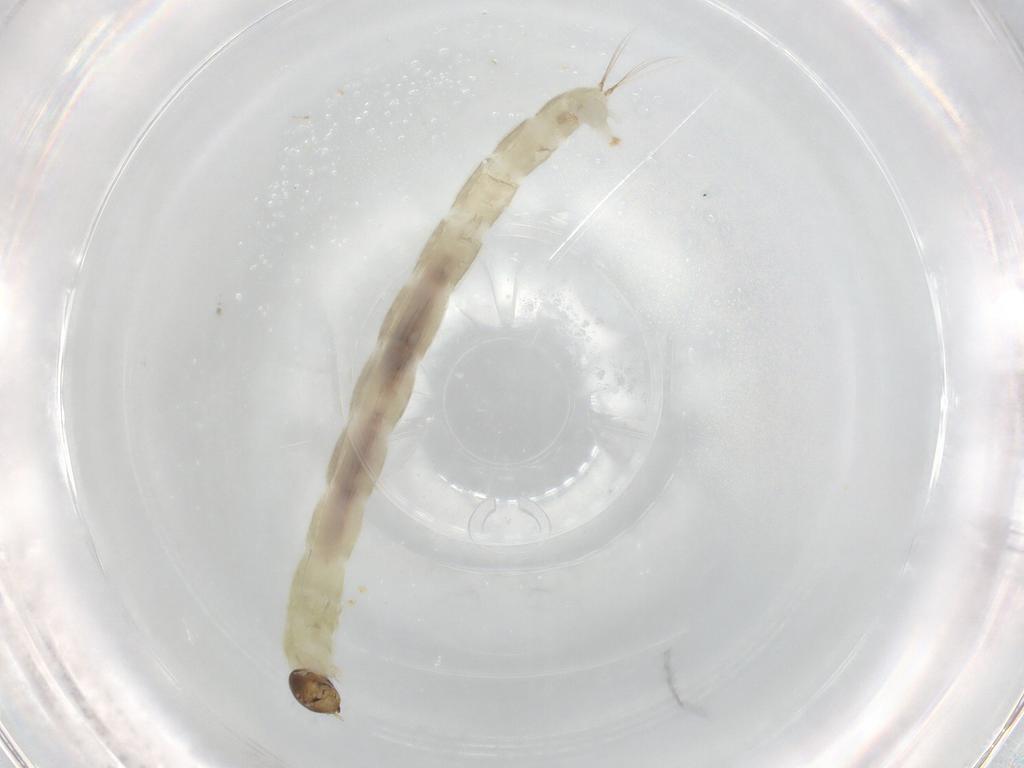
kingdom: Animalia
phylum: Arthropoda
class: Insecta
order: Diptera
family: Chironomidae
